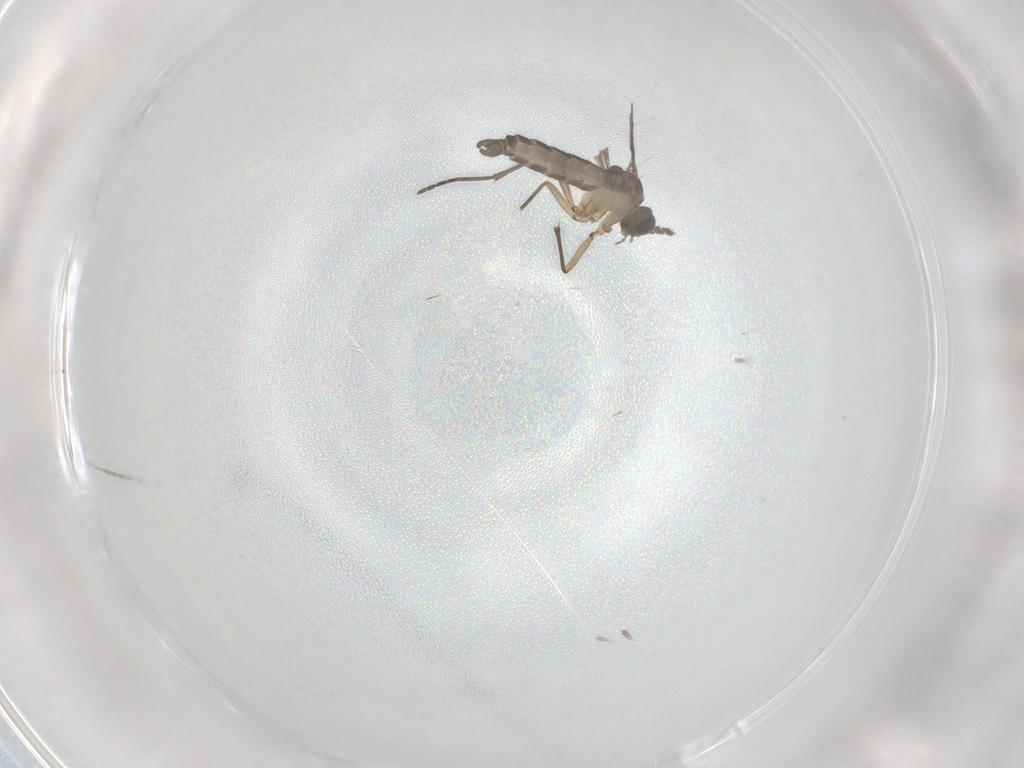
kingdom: Animalia
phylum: Arthropoda
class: Insecta
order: Diptera
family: Sciaridae
